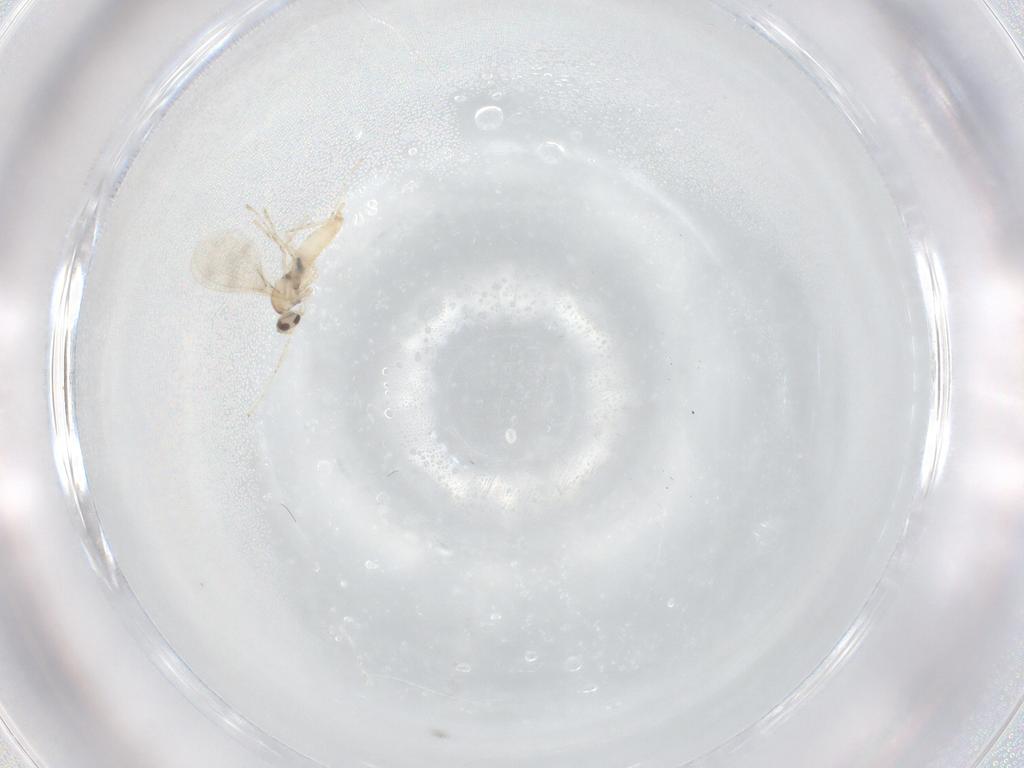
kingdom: Animalia
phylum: Arthropoda
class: Insecta
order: Diptera
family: Cecidomyiidae
